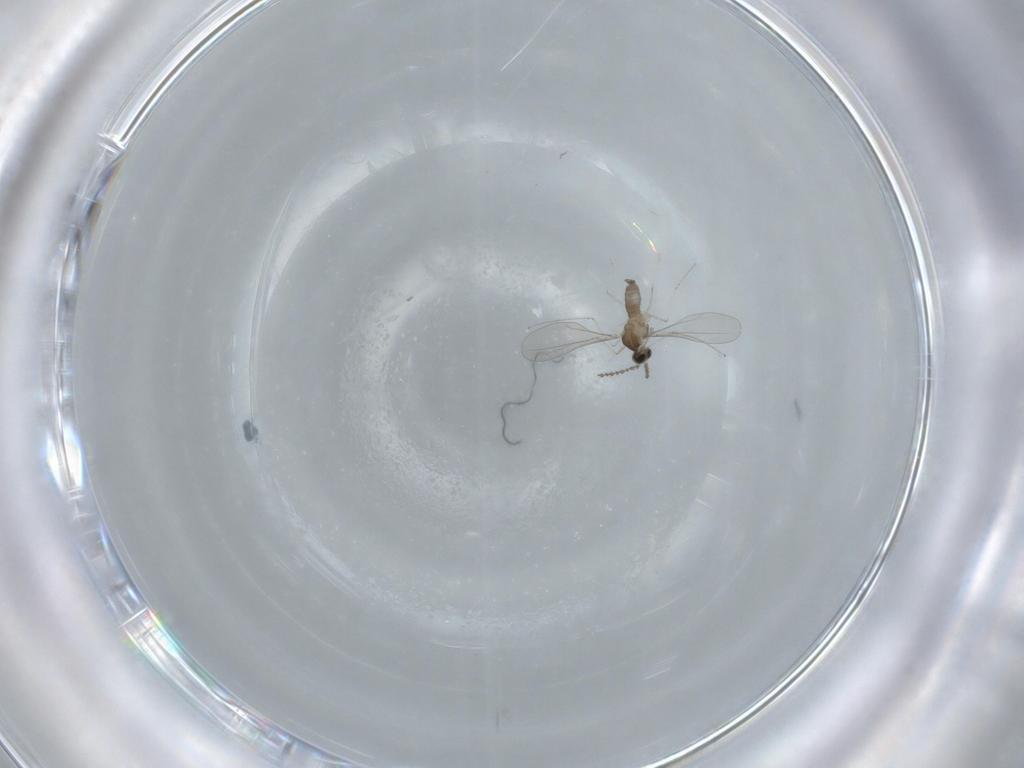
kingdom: Animalia
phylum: Arthropoda
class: Insecta
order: Diptera
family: Cecidomyiidae
